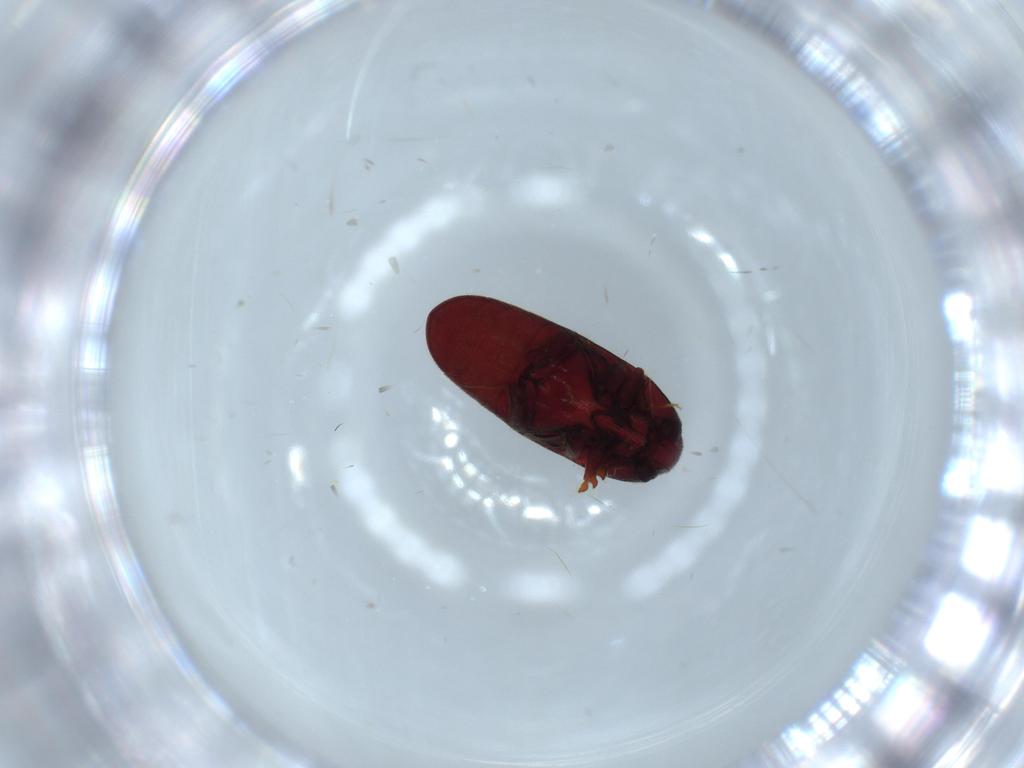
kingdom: Animalia
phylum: Arthropoda
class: Insecta
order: Coleoptera
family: Throscidae
